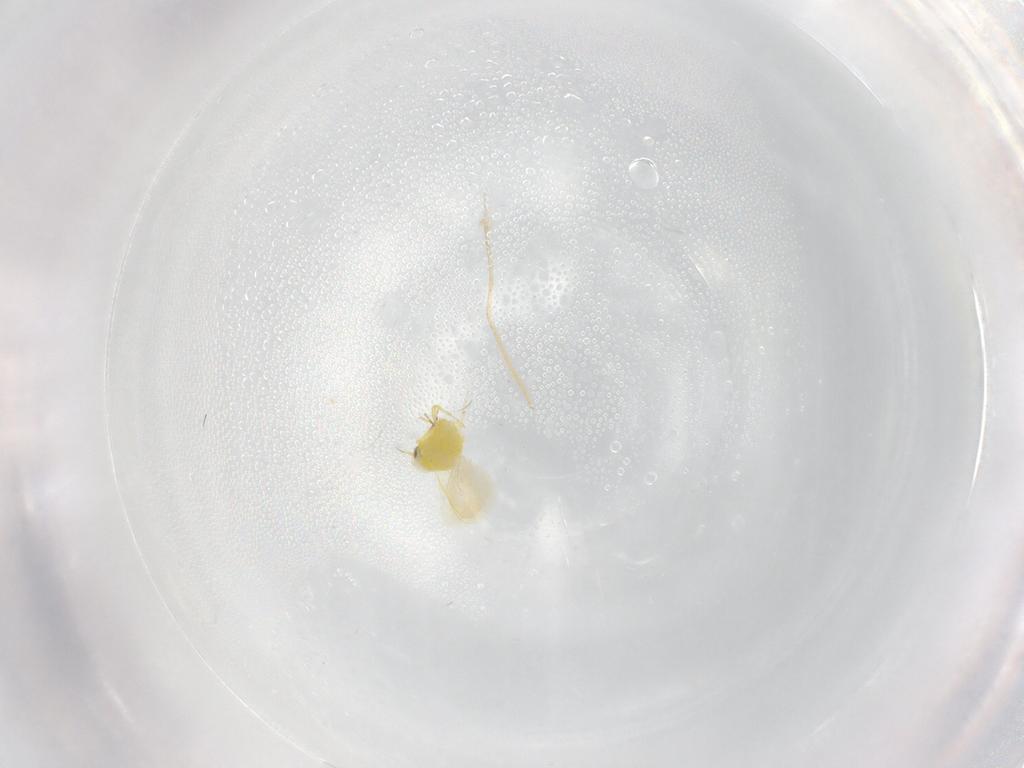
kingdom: Animalia
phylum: Arthropoda
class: Insecta
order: Hemiptera
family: Aleyrodidae
